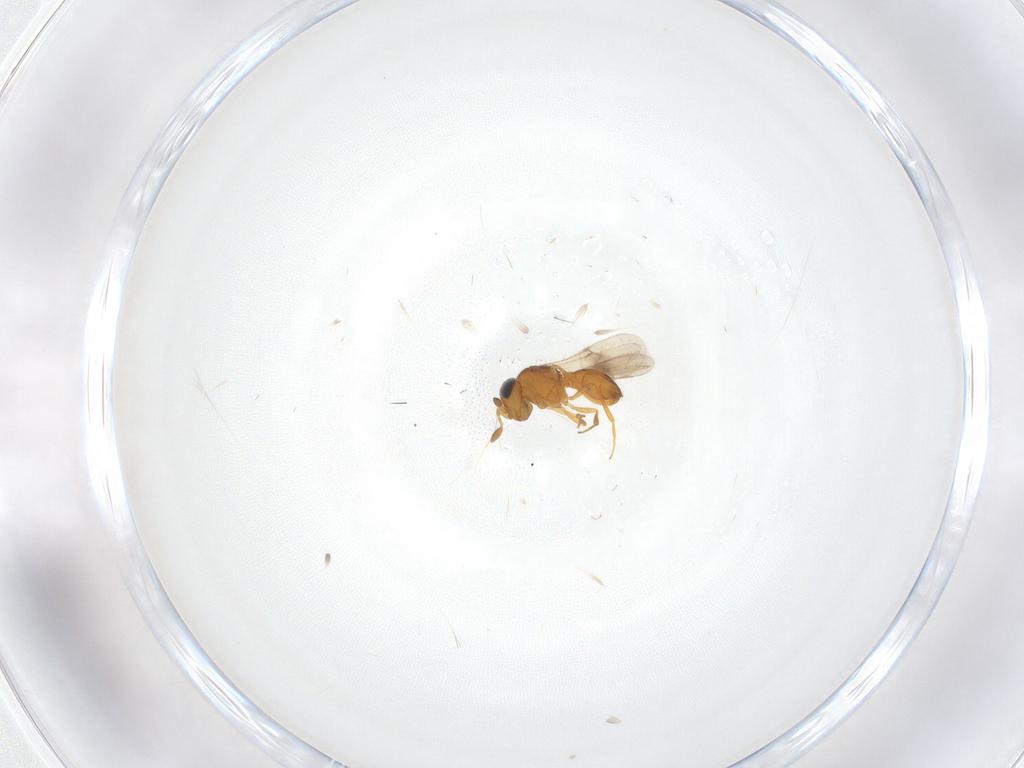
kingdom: Animalia
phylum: Arthropoda
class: Insecta
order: Hymenoptera
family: Scelionidae
